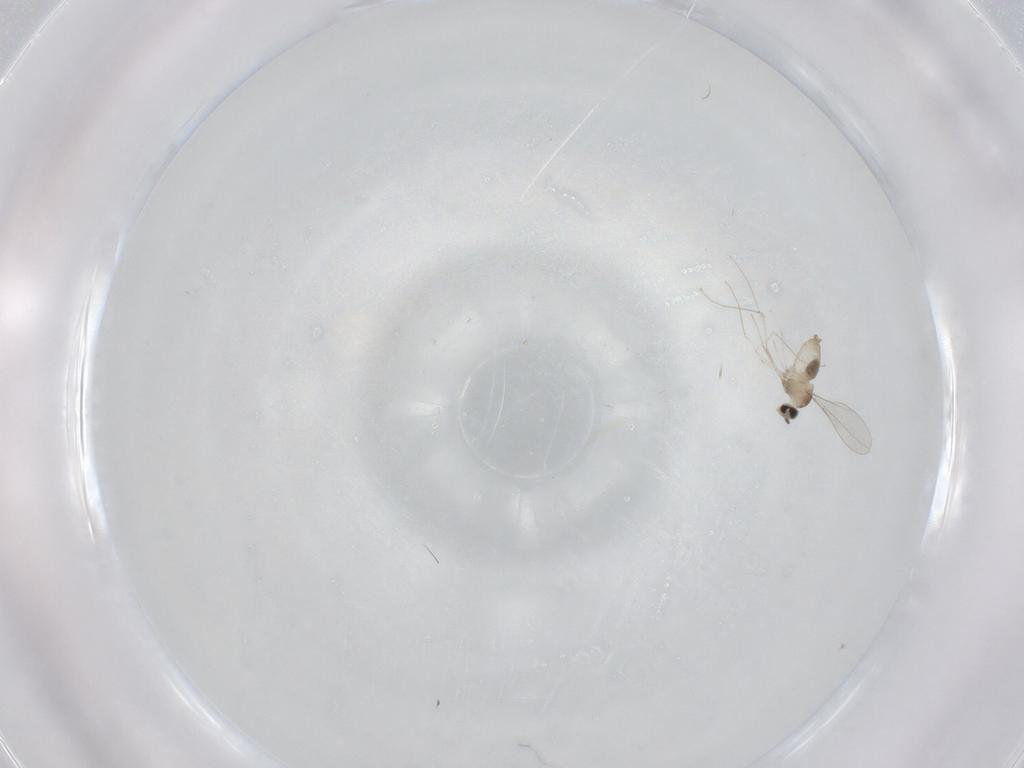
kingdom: Animalia
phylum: Arthropoda
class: Insecta
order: Diptera
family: Cecidomyiidae
